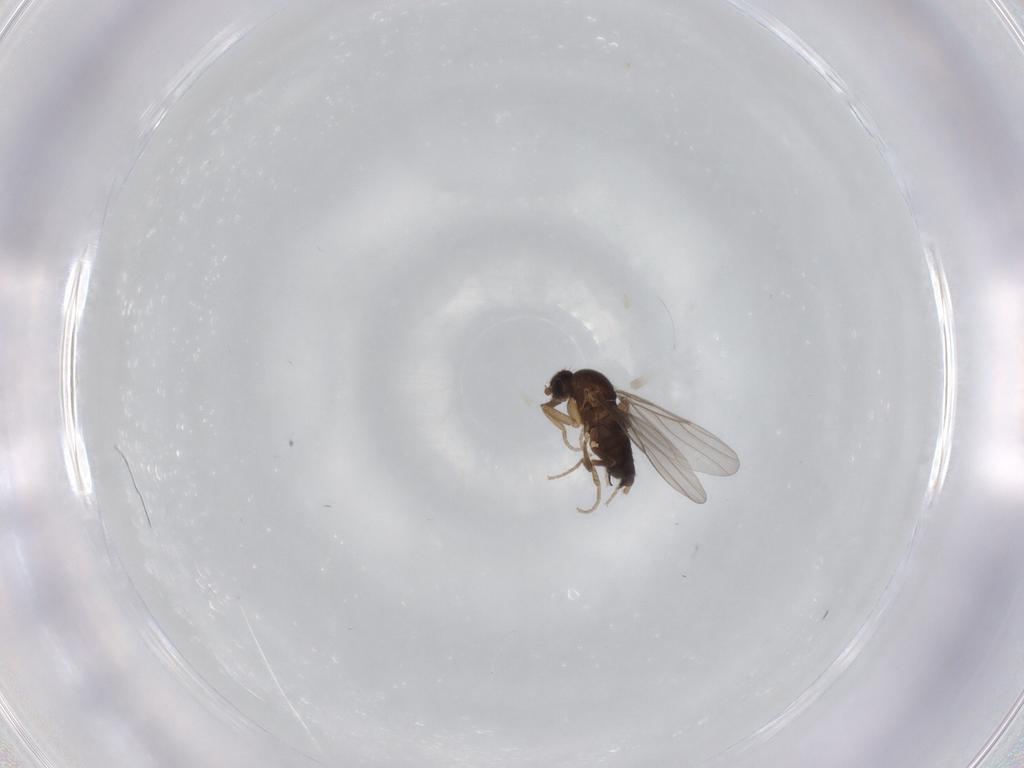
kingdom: Animalia
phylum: Arthropoda
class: Insecta
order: Diptera
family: Phoridae
